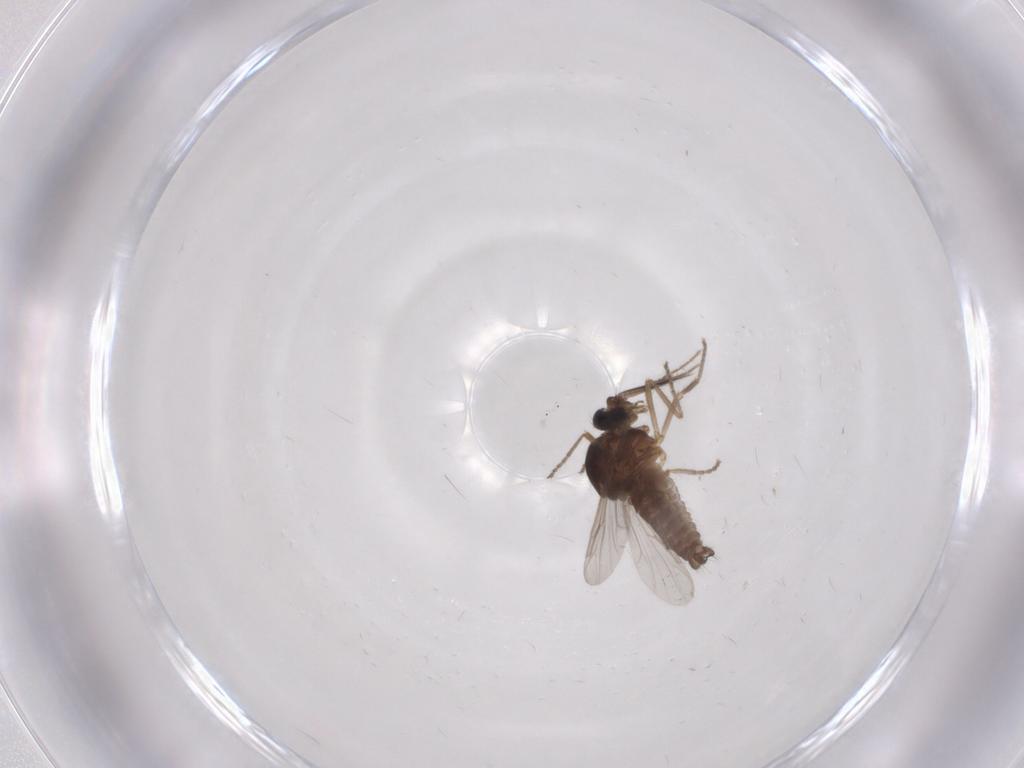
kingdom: Animalia
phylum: Arthropoda
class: Insecta
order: Diptera
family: Ceratopogonidae
